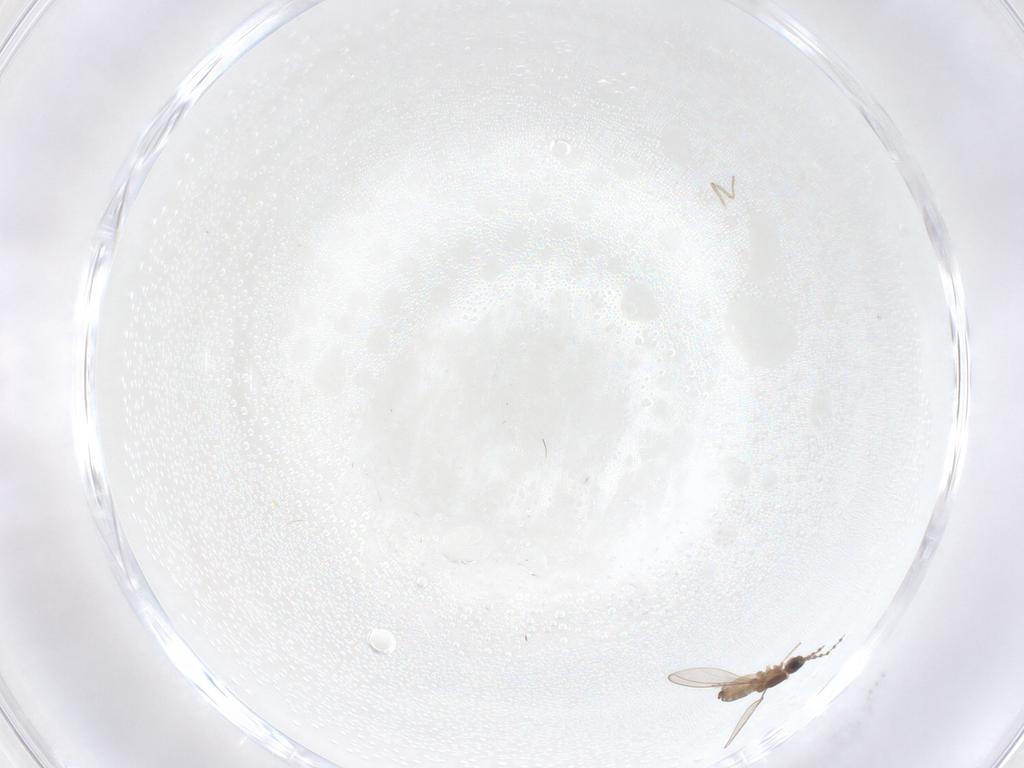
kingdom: Animalia
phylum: Arthropoda
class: Insecta
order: Diptera
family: Cecidomyiidae
